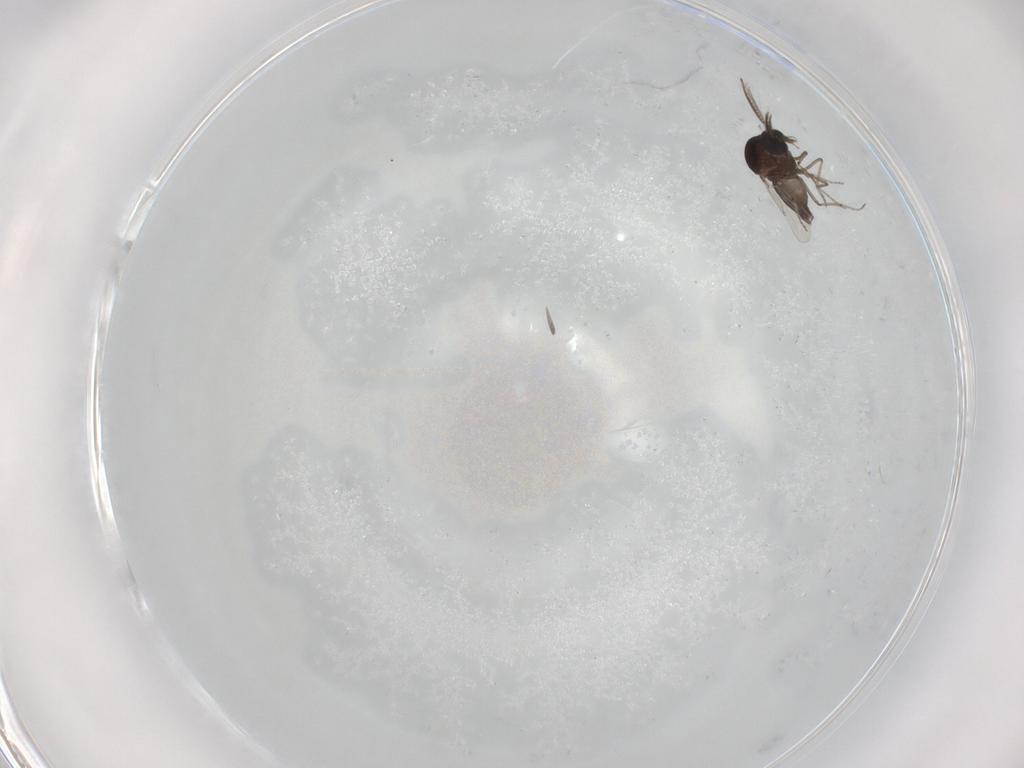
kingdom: Animalia
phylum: Arthropoda
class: Insecta
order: Diptera
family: Ceratopogonidae
